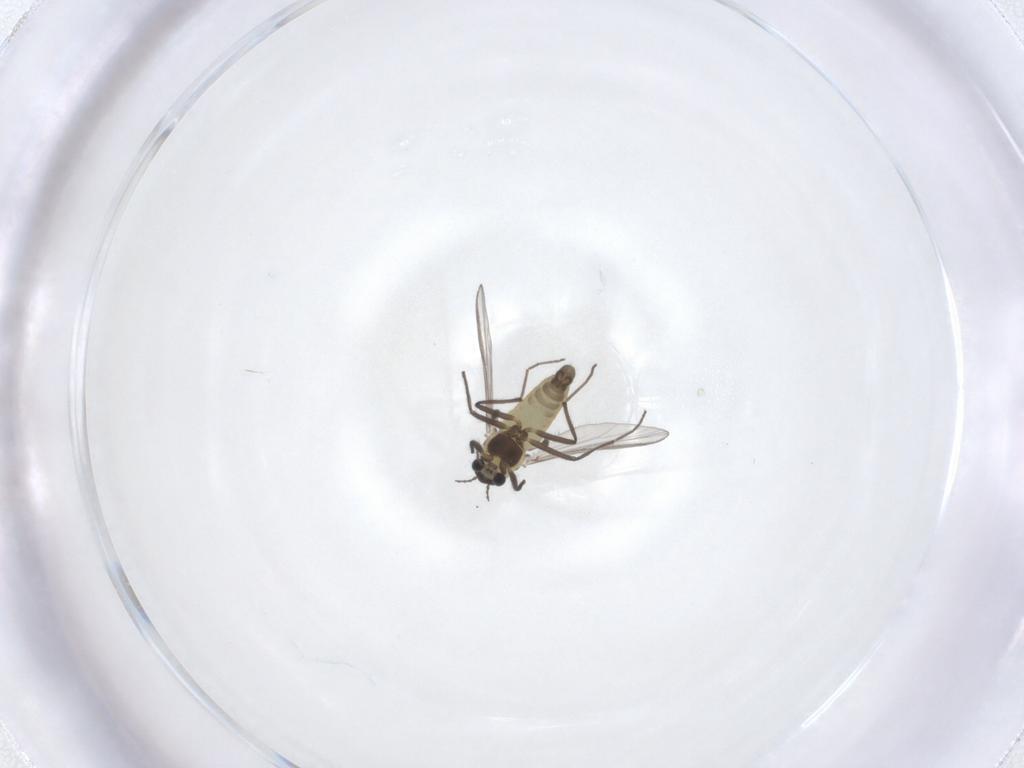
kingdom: Animalia
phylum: Arthropoda
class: Insecta
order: Diptera
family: Chironomidae
